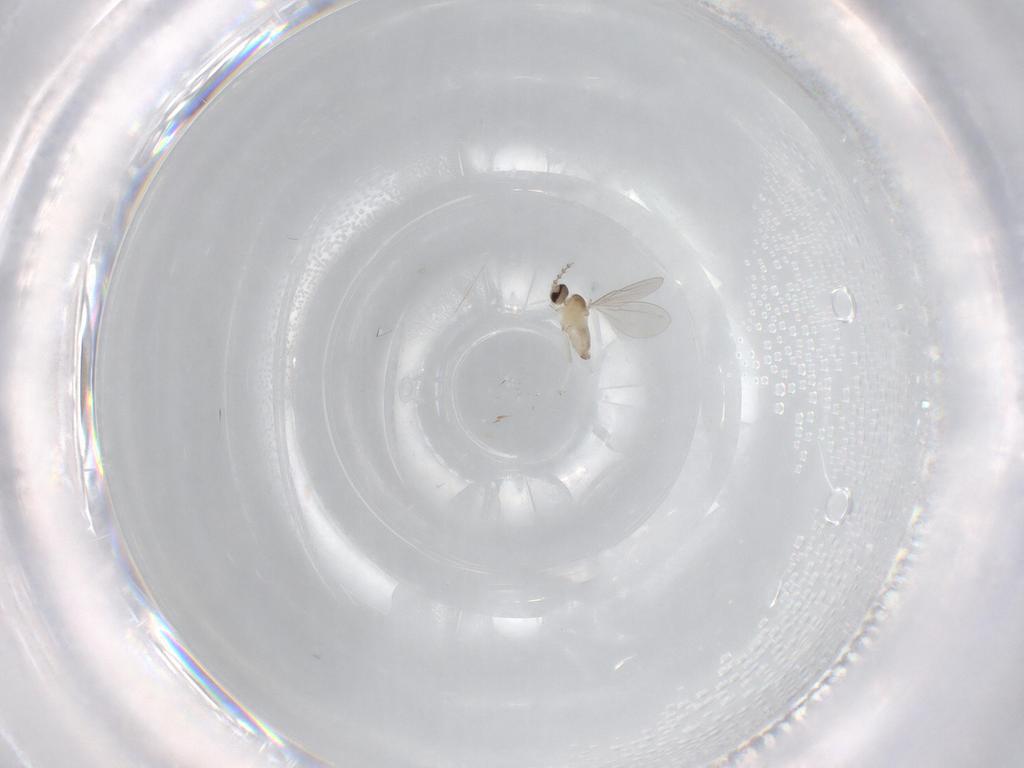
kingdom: Animalia
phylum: Arthropoda
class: Insecta
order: Diptera
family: Cecidomyiidae
